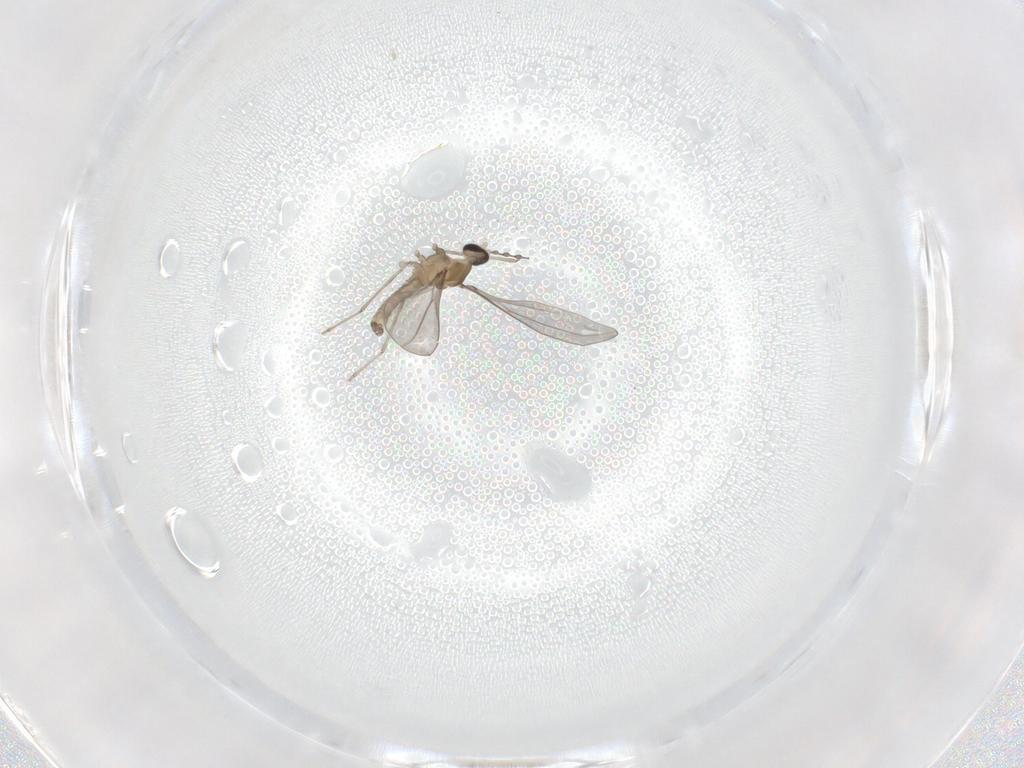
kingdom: Animalia
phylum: Arthropoda
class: Insecta
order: Diptera
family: Cecidomyiidae
